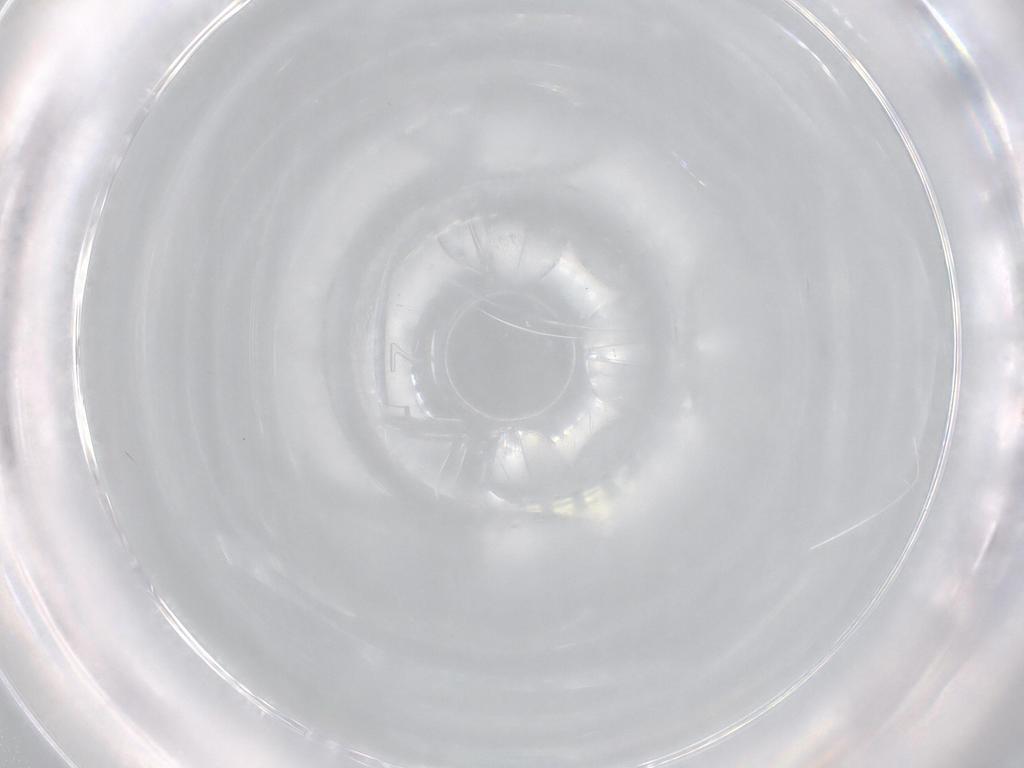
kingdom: Animalia
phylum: Arthropoda
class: Insecta
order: Diptera
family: Cecidomyiidae
